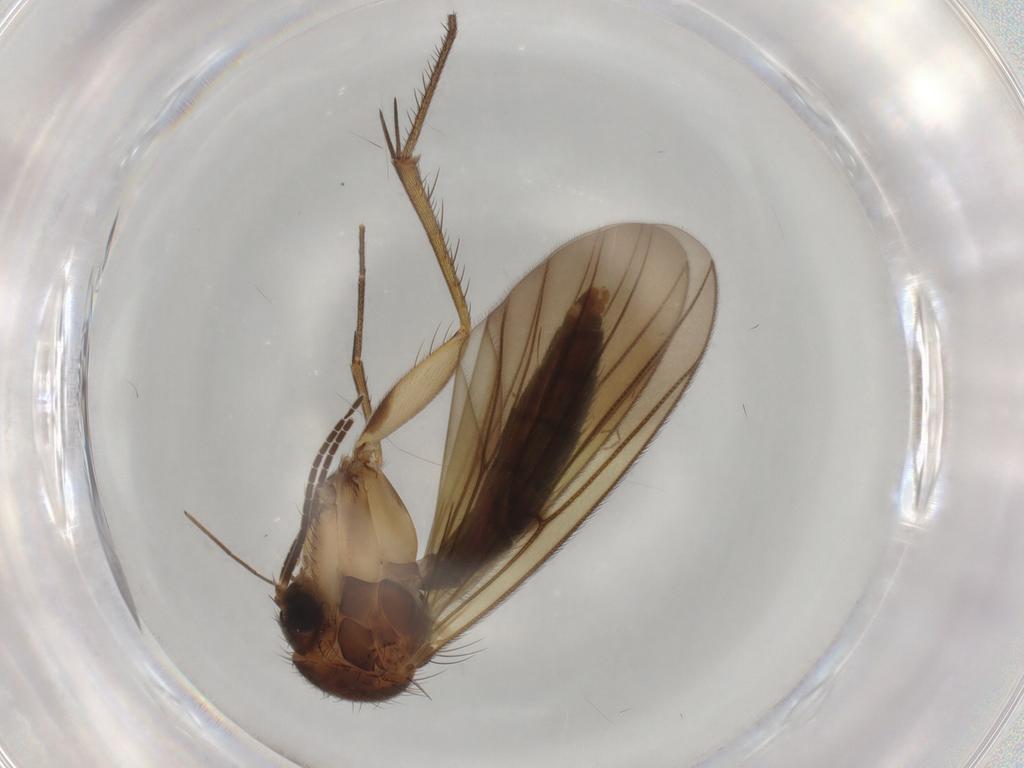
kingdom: Animalia
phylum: Arthropoda
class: Insecta
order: Diptera
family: Mycetophilidae
